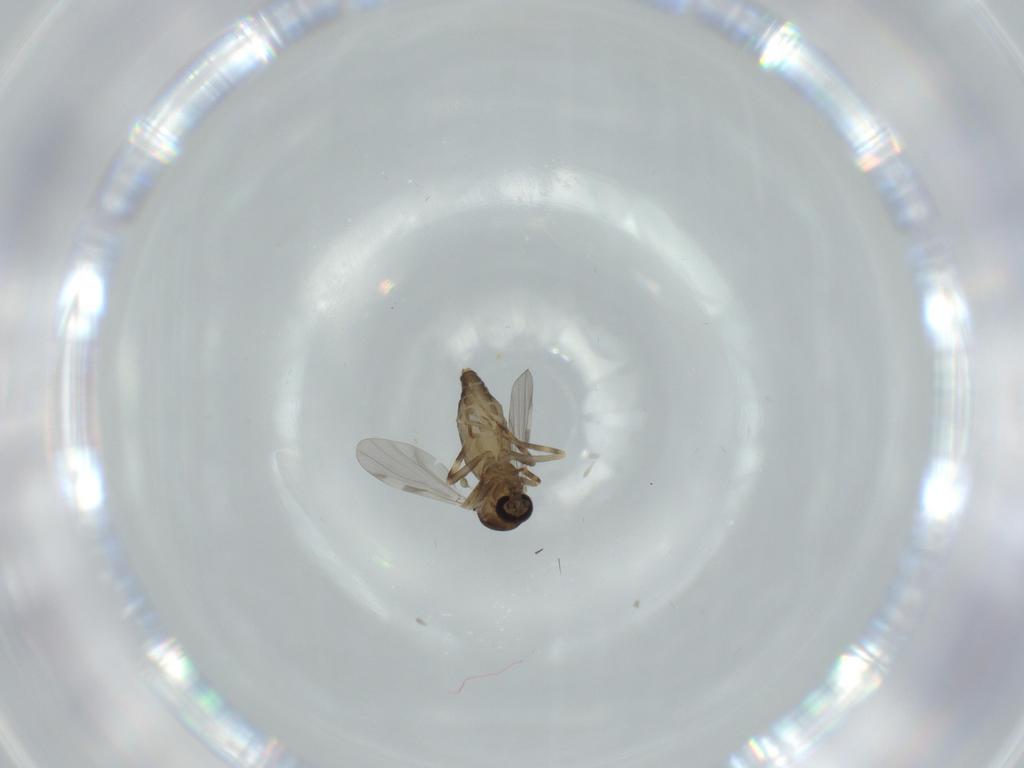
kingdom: Animalia
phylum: Arthropoda
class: Insecta
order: Diptera
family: Ceratopogonidae
